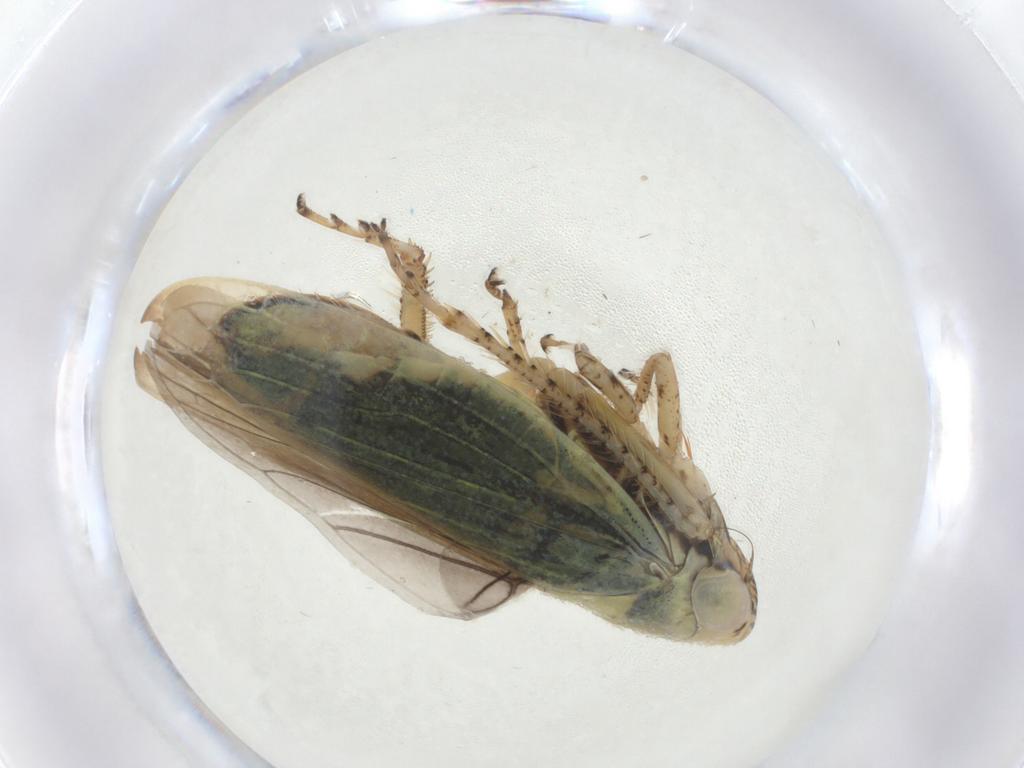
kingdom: Animalia
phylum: Arthropoda
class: Insecta
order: Hemiptera
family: Cicadellidae
